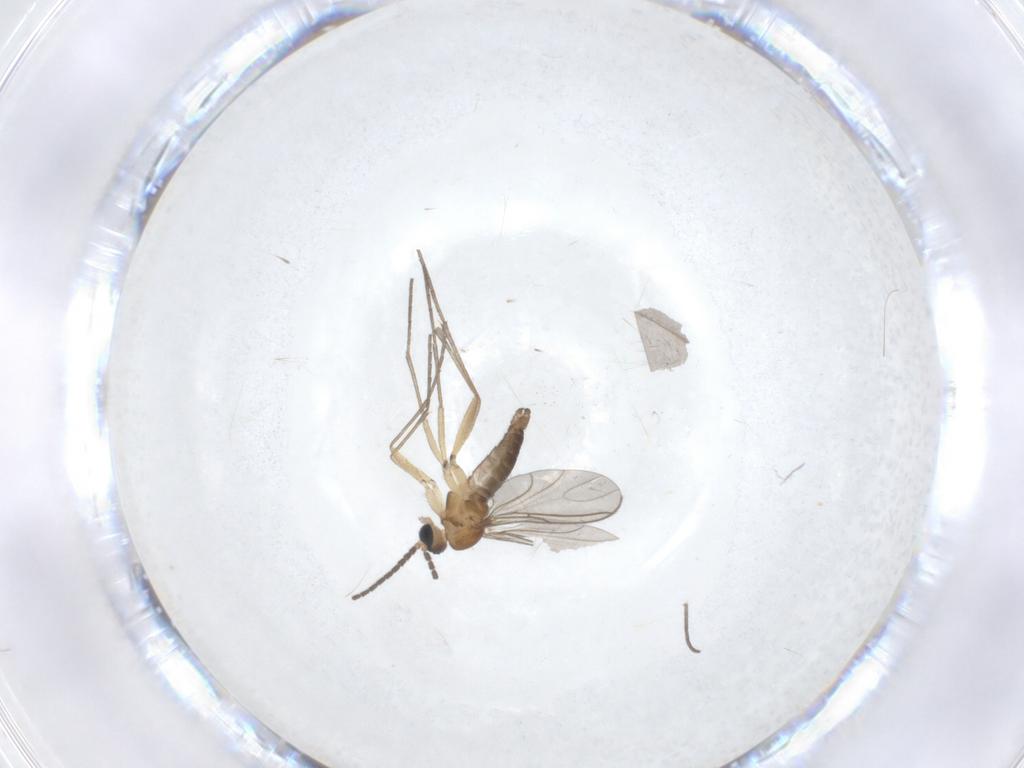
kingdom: Animalia
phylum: Arthropoda
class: Insecta
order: Diptera
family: Sciaridae
